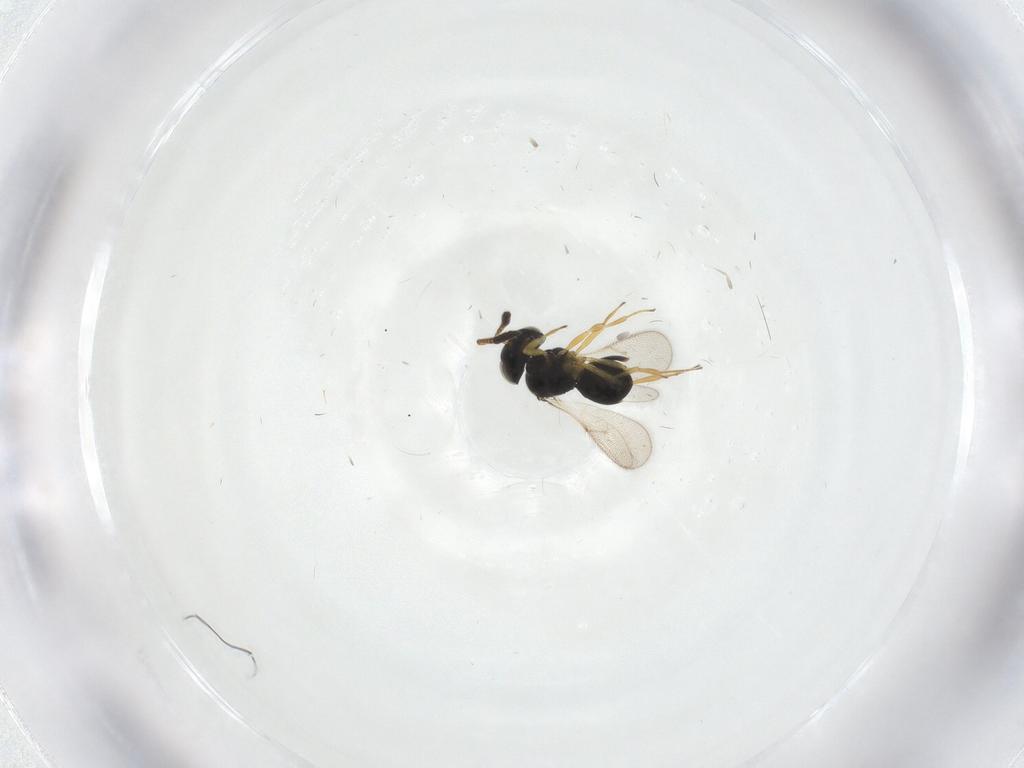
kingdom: Animalia
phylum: Arthropoda
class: Insecta
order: Hymenoptera
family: Scelionidae
